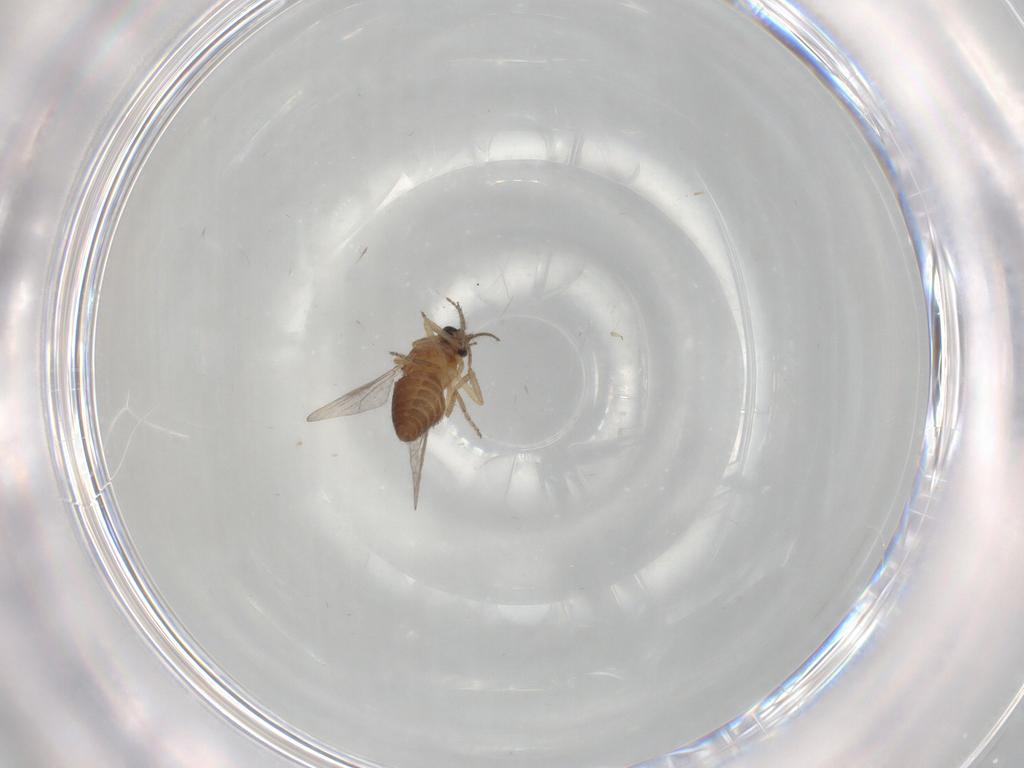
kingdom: Animalia
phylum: Arthropoda
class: Insecta
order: Diptera
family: Ceratopogonidae
